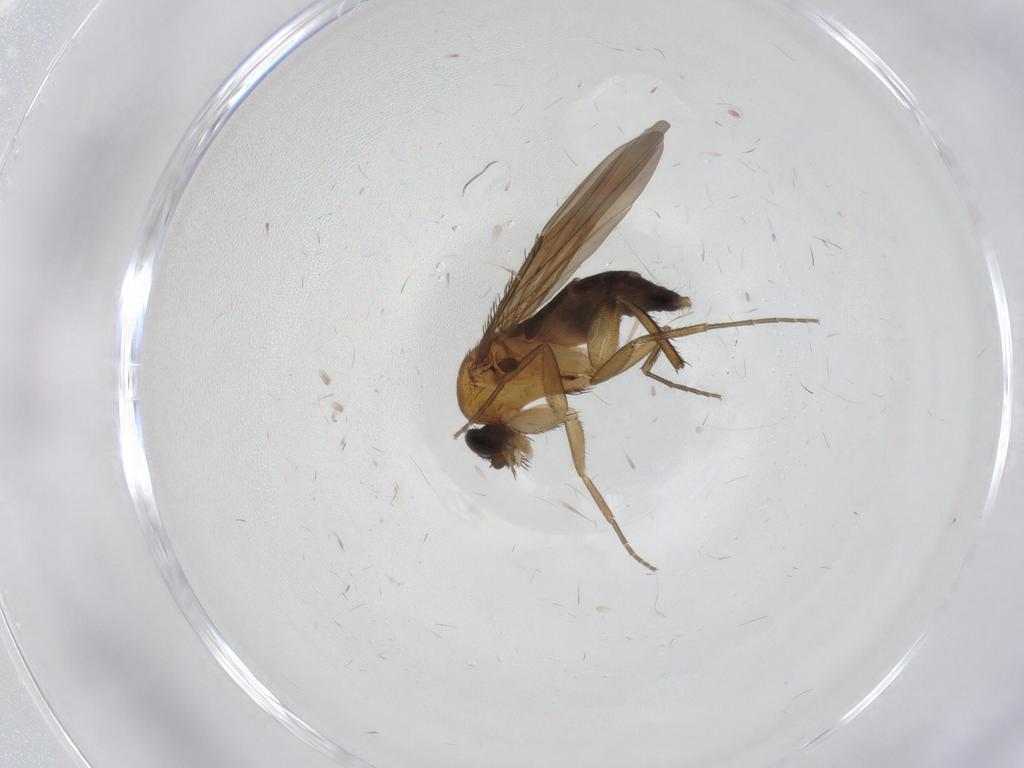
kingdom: Animalia
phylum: Arthropoda
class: Insecta
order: Diptera
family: Phoridae
